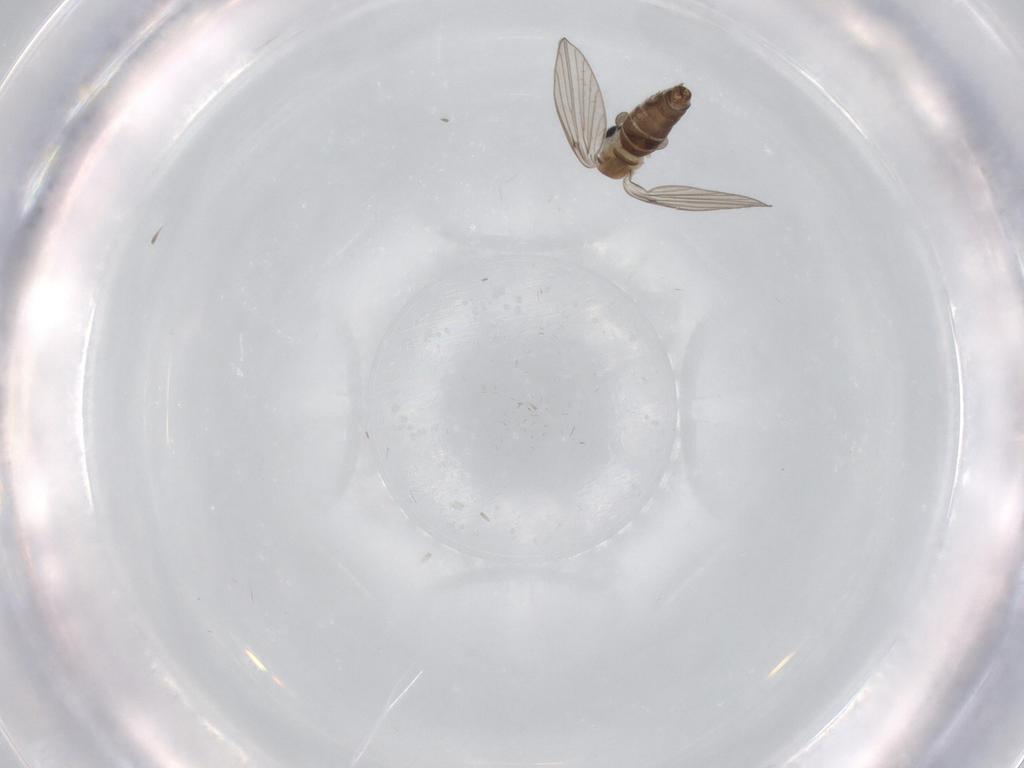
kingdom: Animalia
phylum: Arthropoda
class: Insecta
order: Diptera
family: Psychodidae
